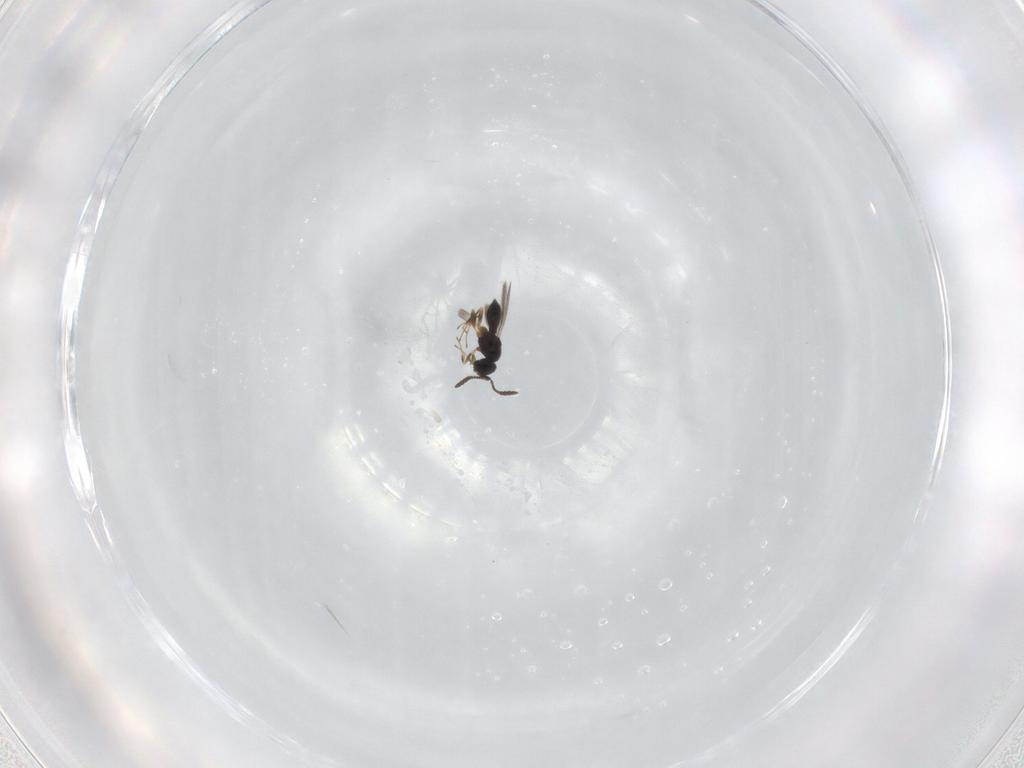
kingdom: Animalia
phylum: Arthropoda
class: Insecta
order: Hymenoptera
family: Scelionidae
